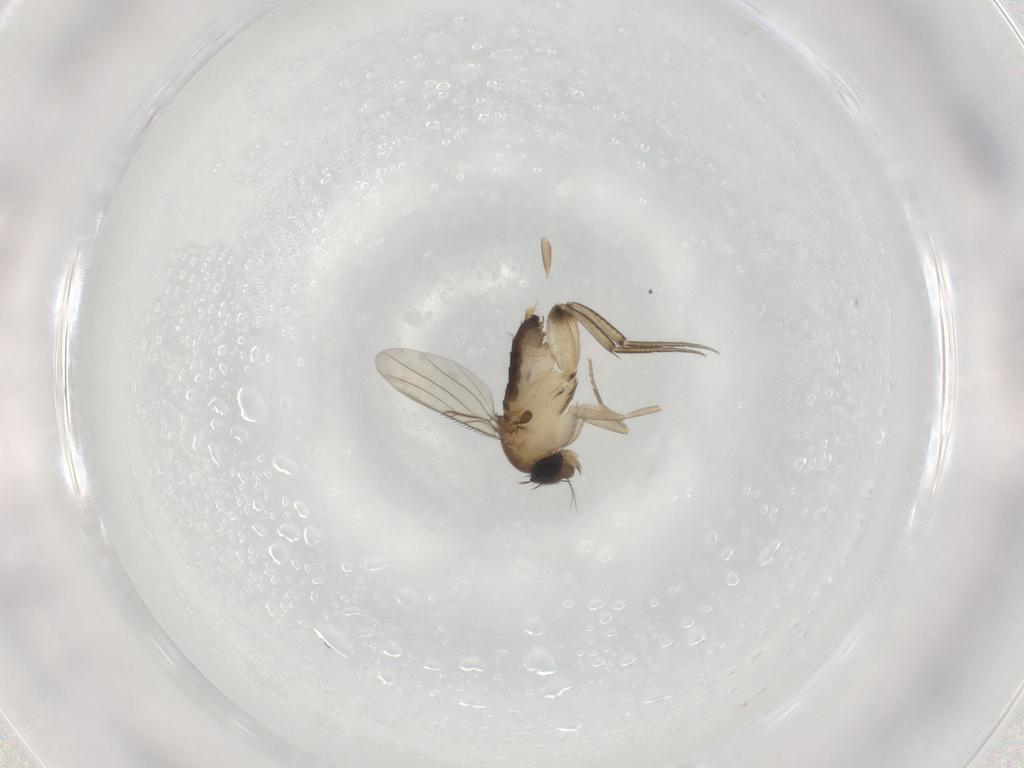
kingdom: Animalia
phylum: Arthropoda
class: Insecta
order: Diptera
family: Phoridae
